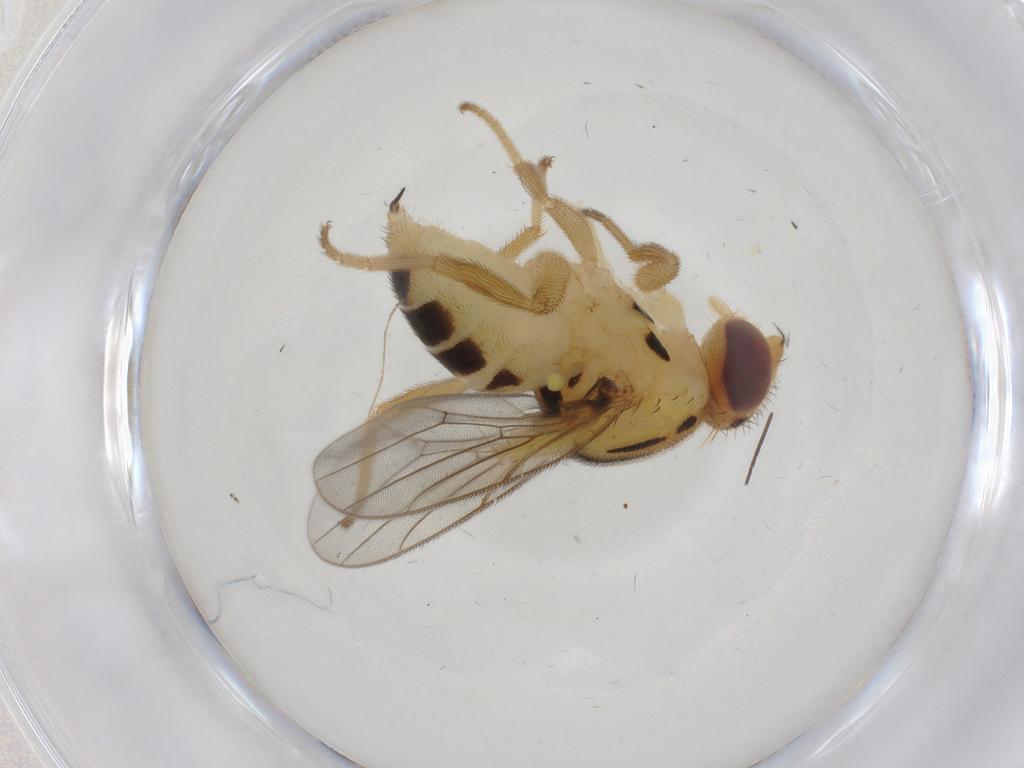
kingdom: Animalia
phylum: Arthropoda
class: Insecta
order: Diptera
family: Chloropidae
